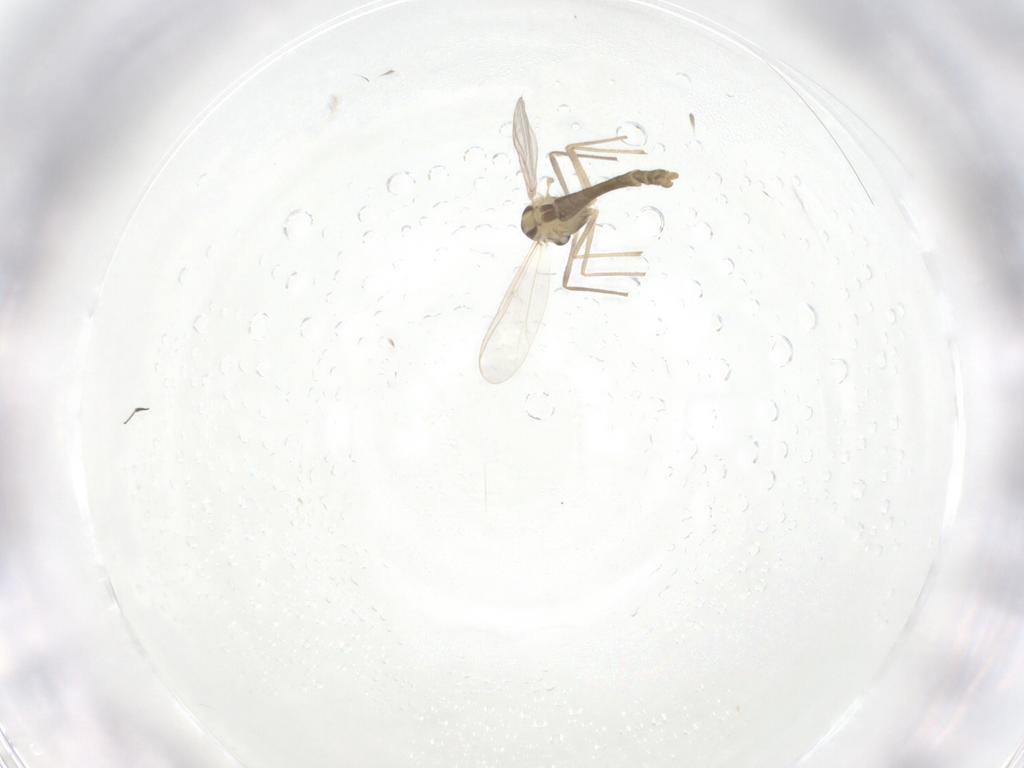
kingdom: Animalia
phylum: Arthropoda
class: Insecta
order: Diptera
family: Chironomidae
